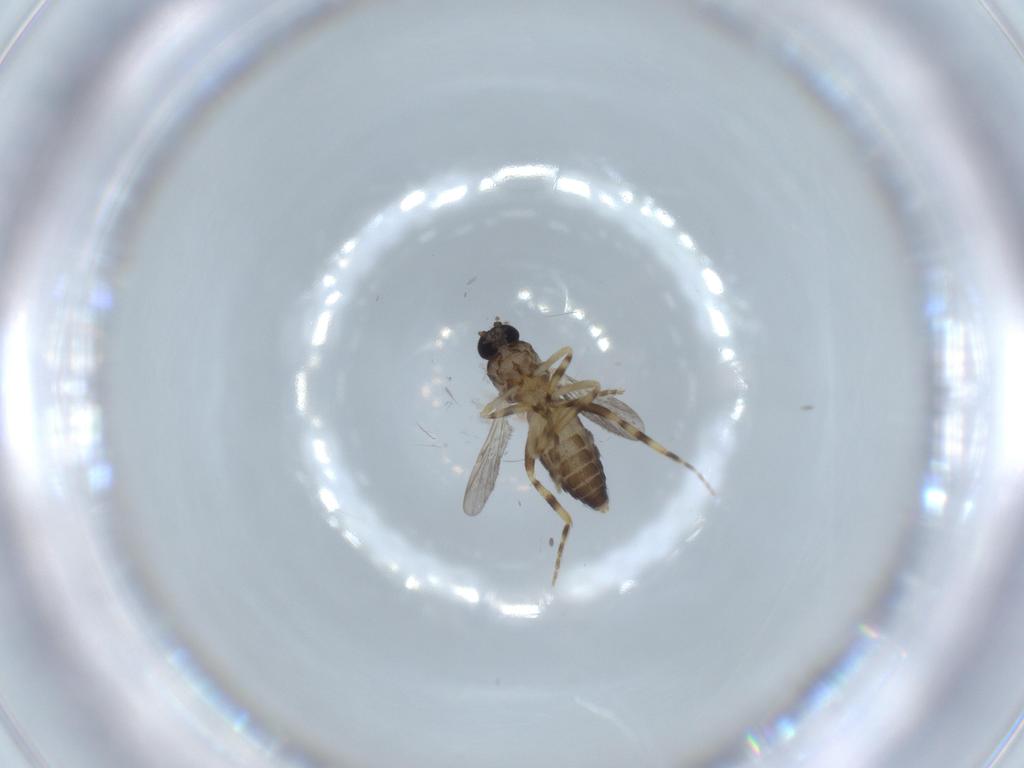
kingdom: Animalia
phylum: Arthropoda
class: Insecta
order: Diptera
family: Ceratopogonidae
